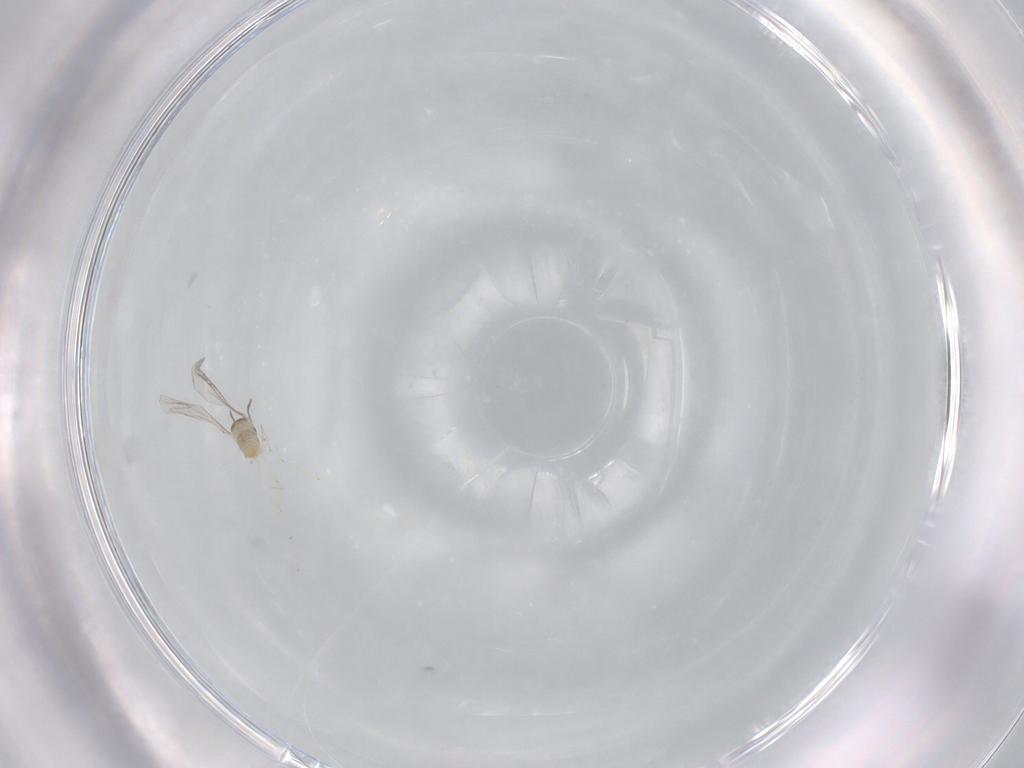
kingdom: Animalia
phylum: Arthropoda
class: Insecta
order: Diptera
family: Cecidomyiidae
